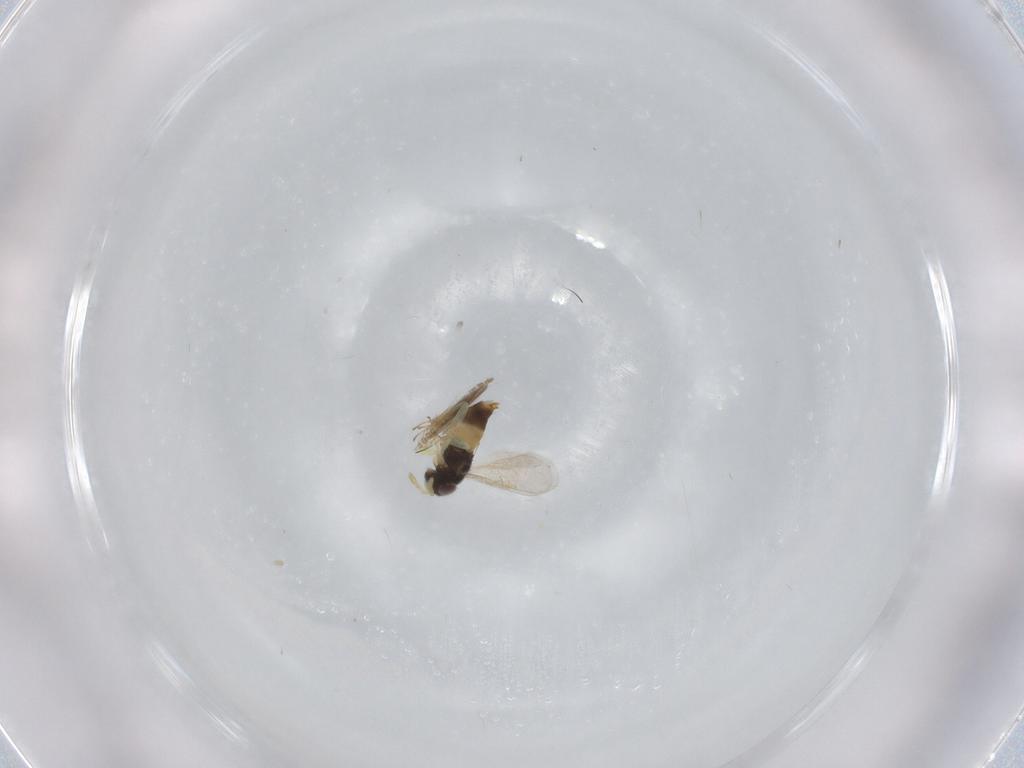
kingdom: Animalia
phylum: Arthropoda
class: Insecta
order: Hymenoptera
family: Aphelinidae
